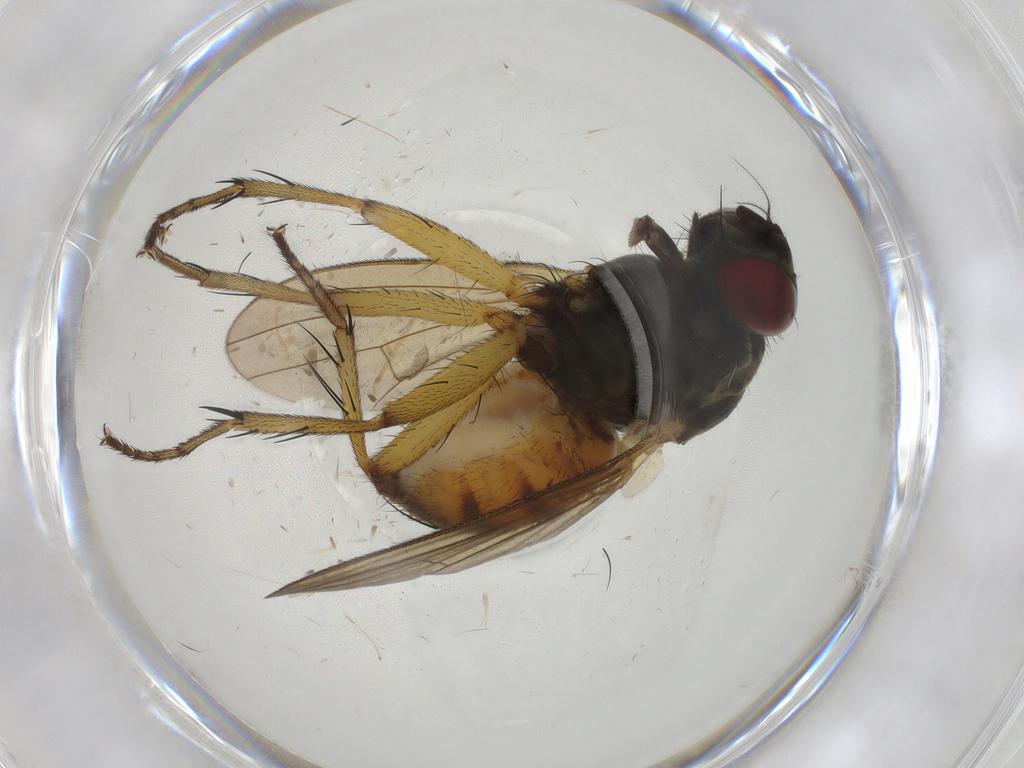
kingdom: Animalia
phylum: Arthropoda
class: Insecta
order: Diptera
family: Muscidae
